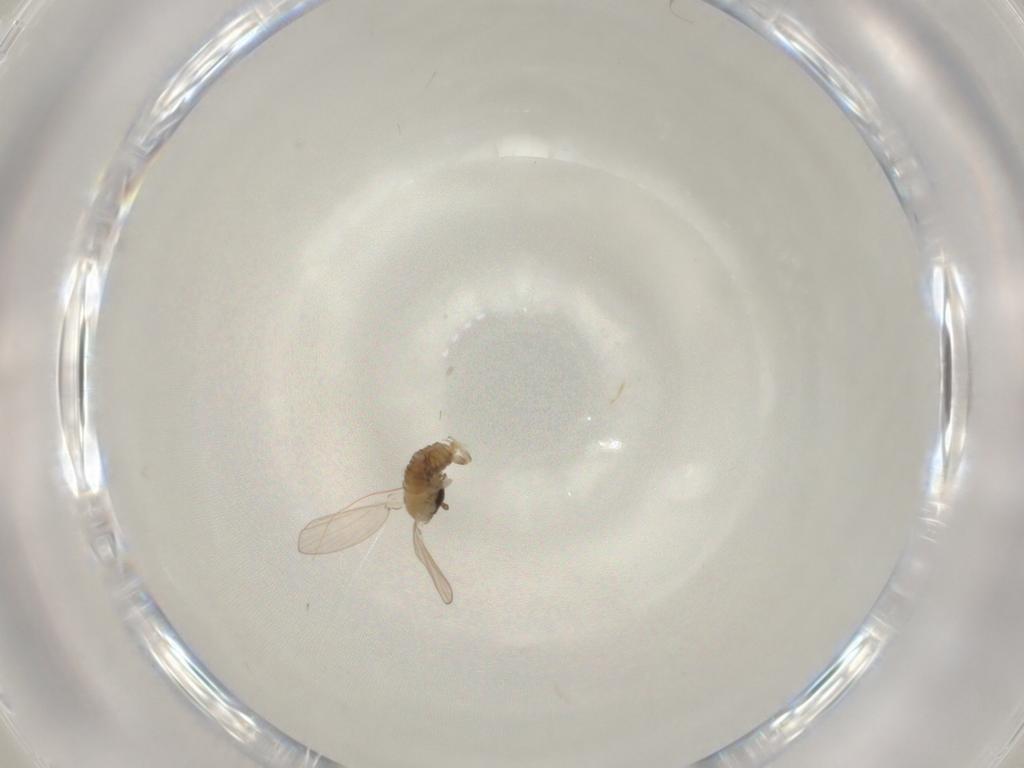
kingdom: Animalia
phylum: Arthropoda
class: Insecta
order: Diptera
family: Psychodidae
